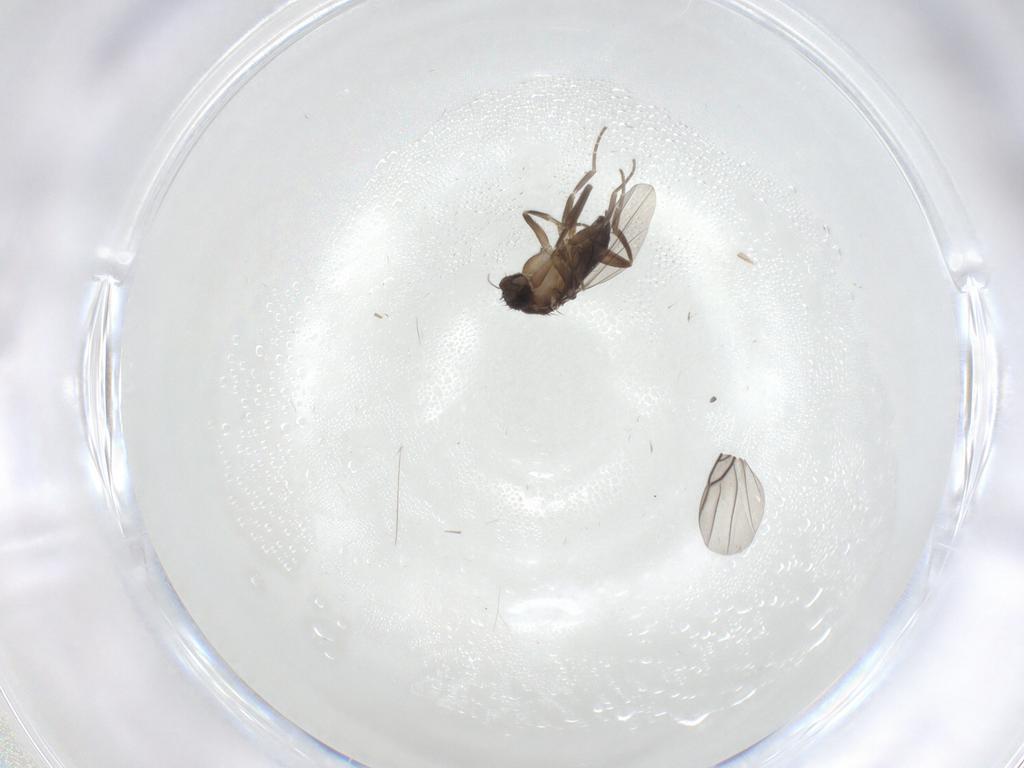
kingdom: Animalia
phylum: Arthropoda
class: Insecta
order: Diptera
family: Phoridae
